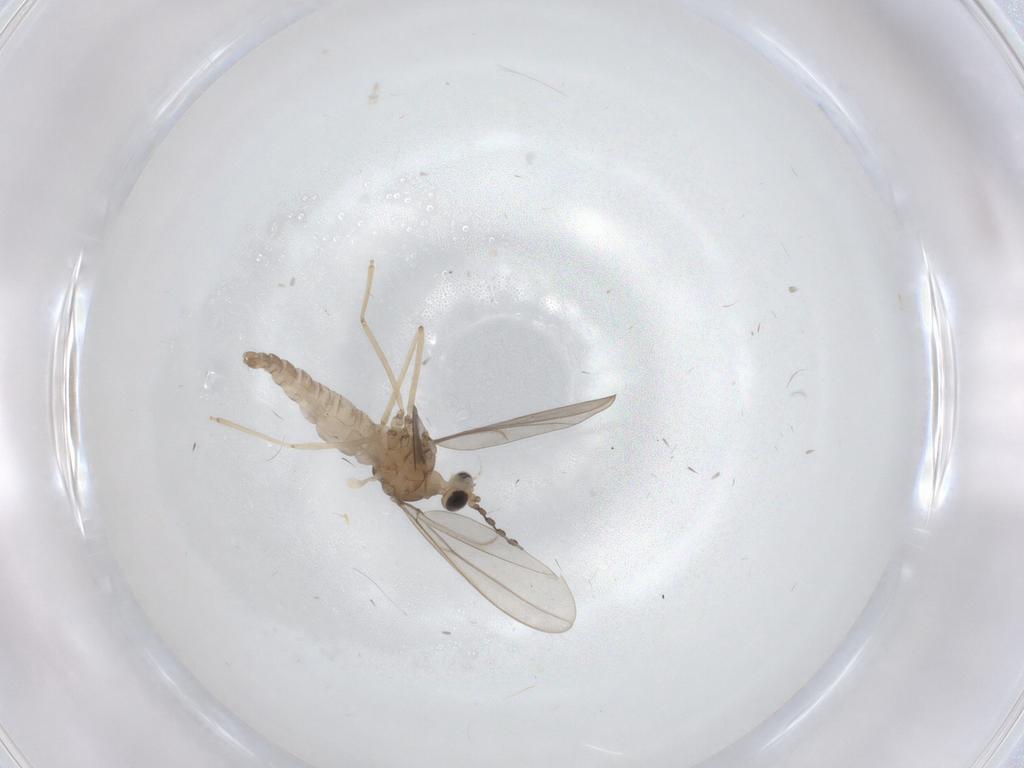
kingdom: Animalia
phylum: Arthropoda
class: Insecta
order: Diptera
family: Cecidomyiidae
